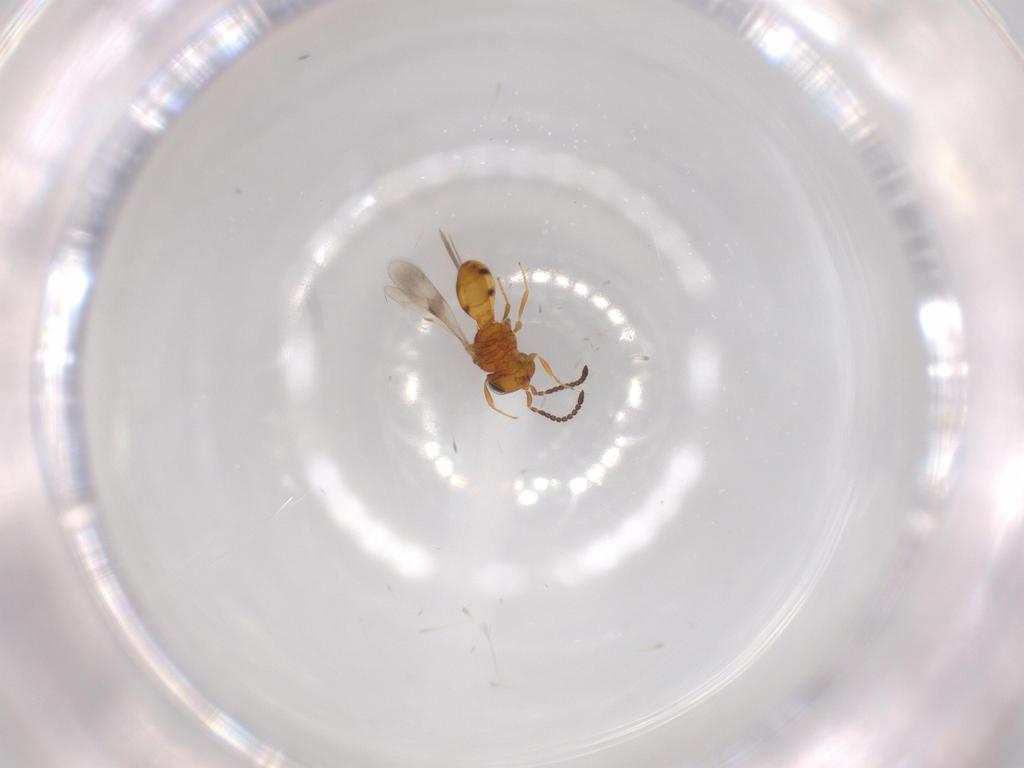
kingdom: Animalia
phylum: Arthropoda
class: Insecta
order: Hymenoptera
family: Scelionidae
